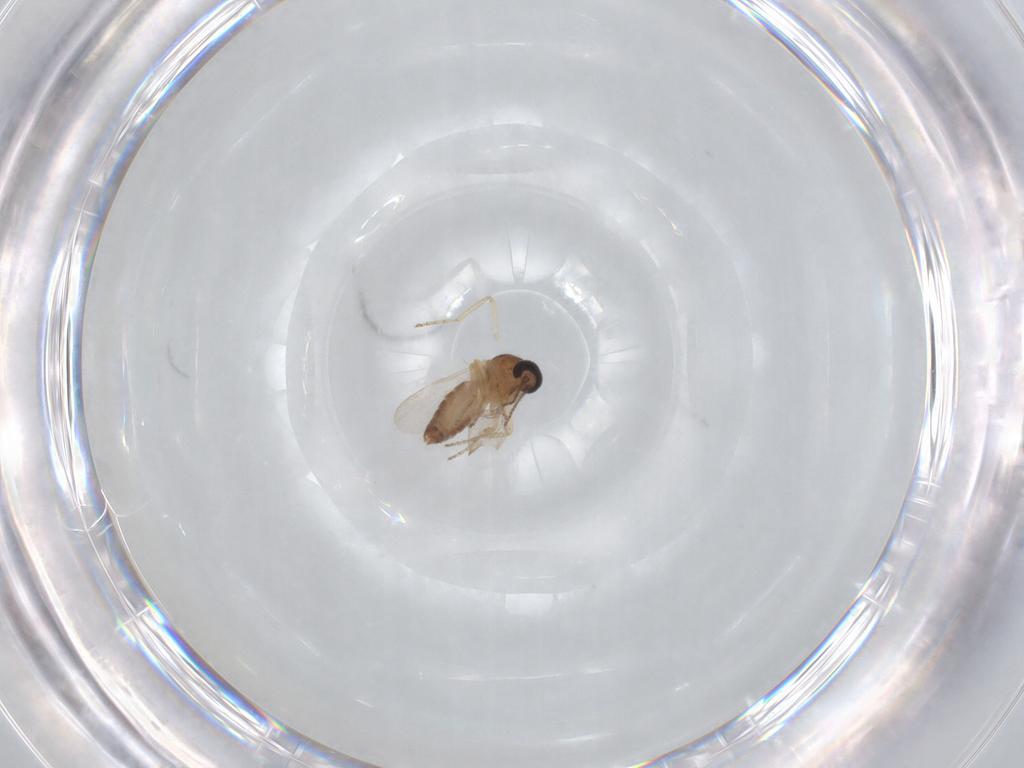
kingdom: Animalia
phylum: Arthropoda
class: Insecta
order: Diptera
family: Ceratopogonidae
